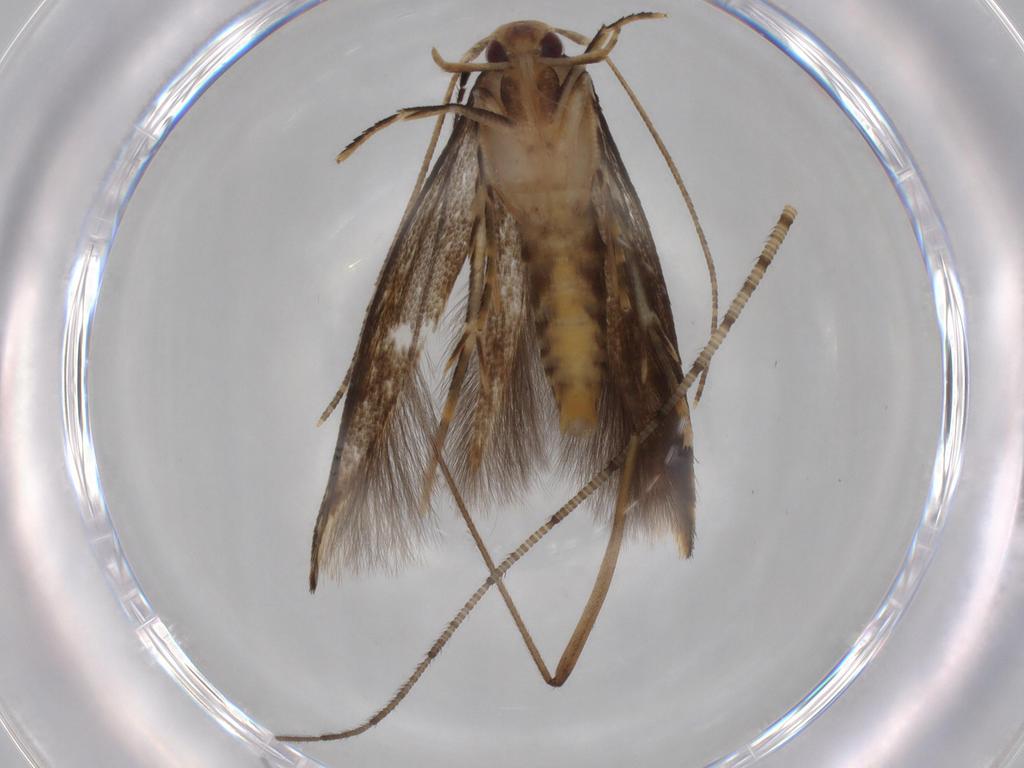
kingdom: Animalia
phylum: Arthropoda
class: Insecta
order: Lepidoptera
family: Momphidae
